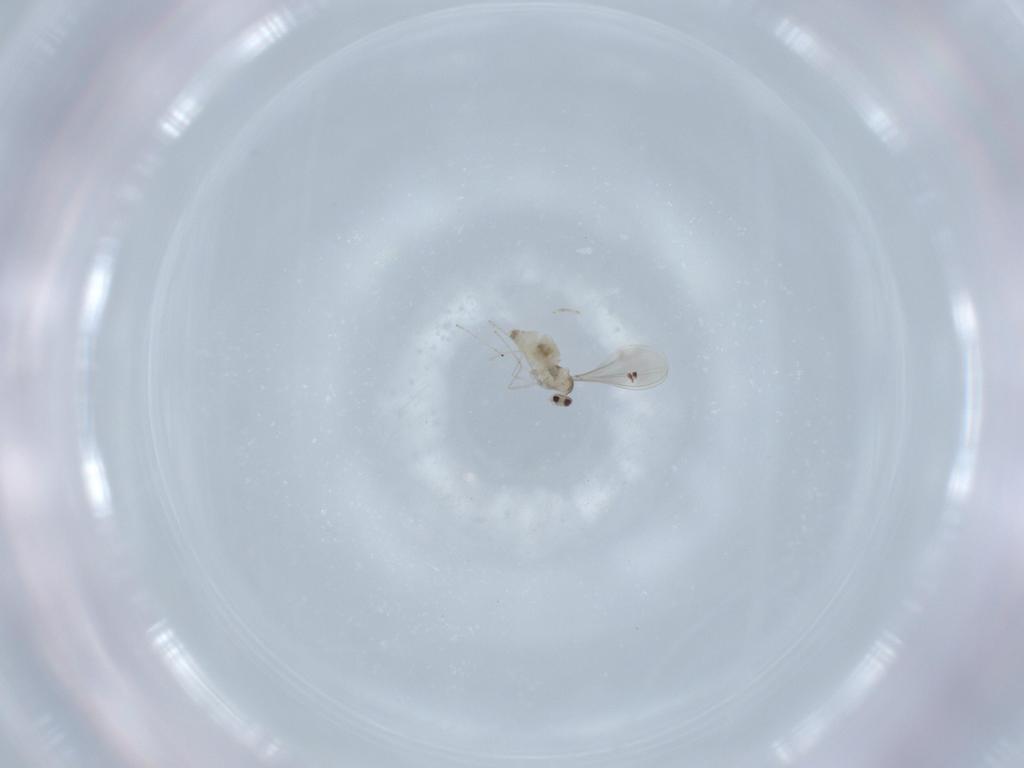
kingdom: Animalia
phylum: Arthropoda
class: Insecta
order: Diptera
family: Cecidomyiidae
